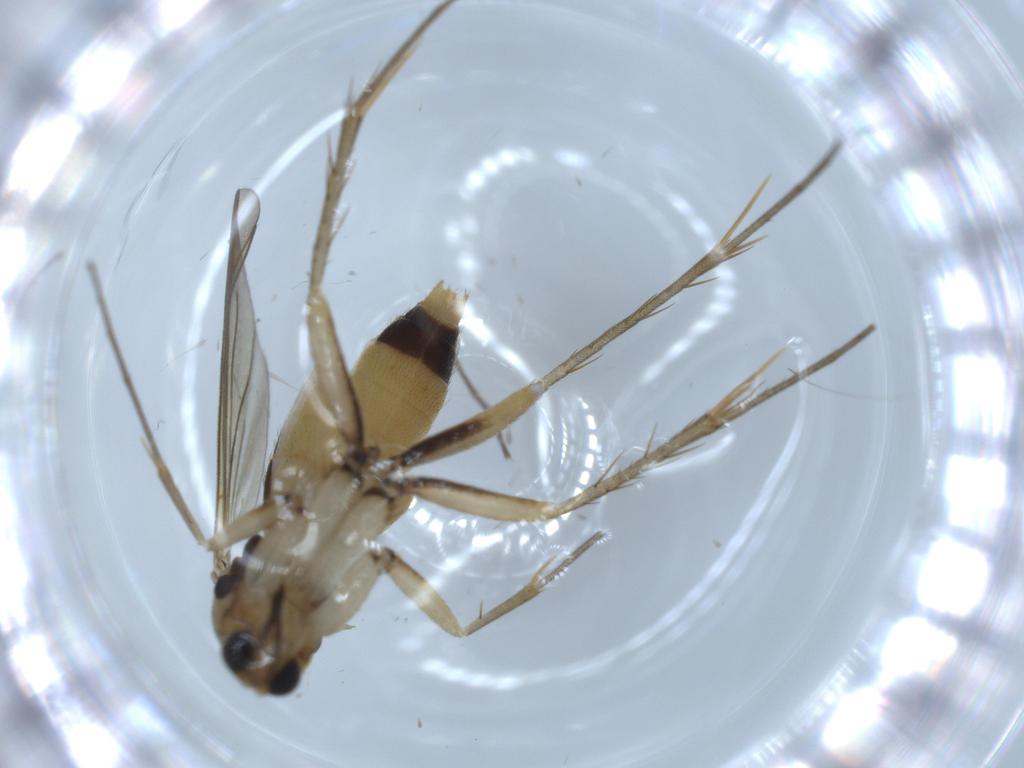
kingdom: Animalia
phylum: Arthropoda
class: Insecta
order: Diptera
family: Mycetophilidae
